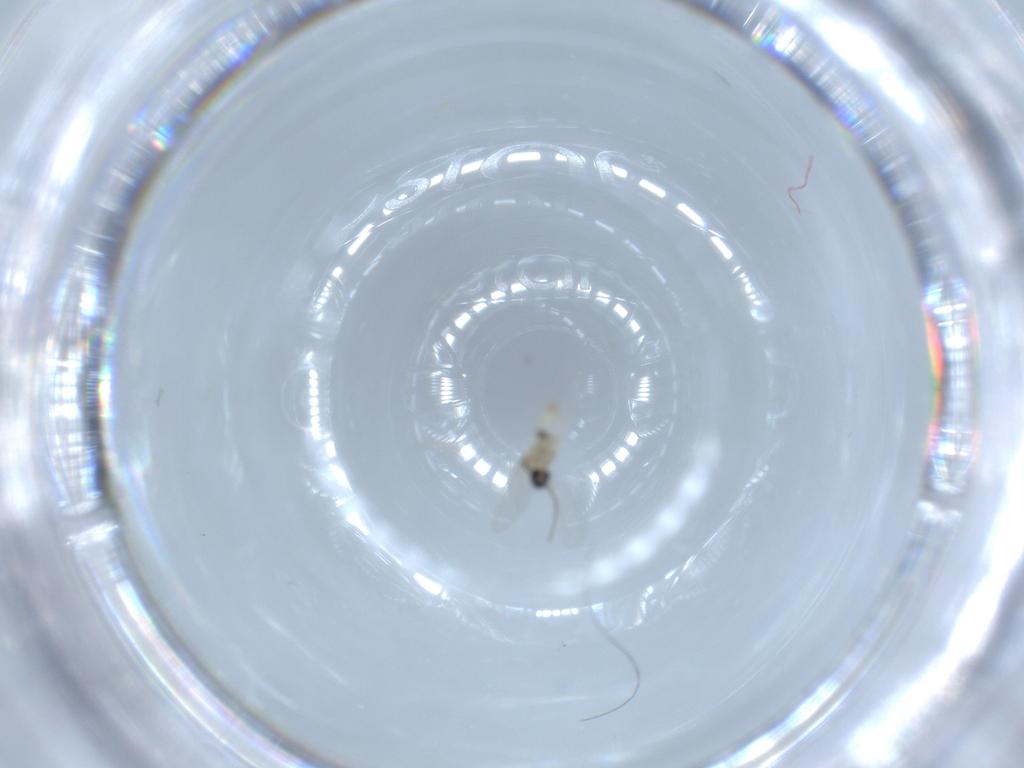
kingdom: Animalia
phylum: Arthropoda
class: Insecta
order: Diptera
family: Cecidomyiidae
